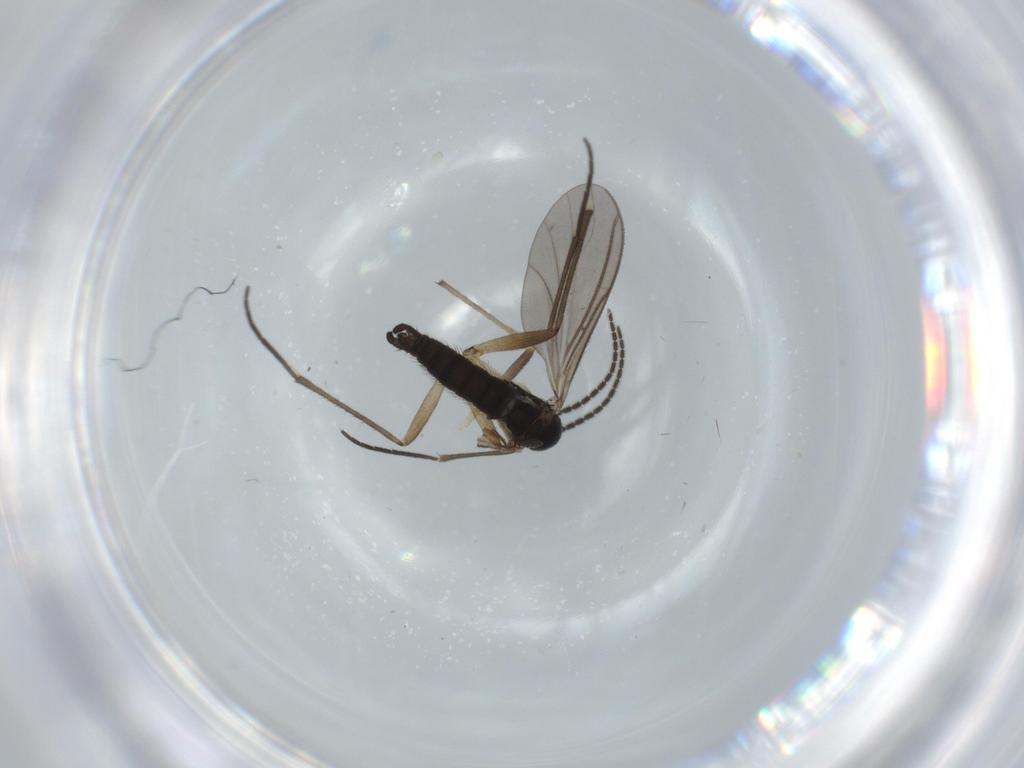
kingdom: Animalia
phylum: Arthropoda
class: Insecta
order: Diptera
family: Sciaridae
